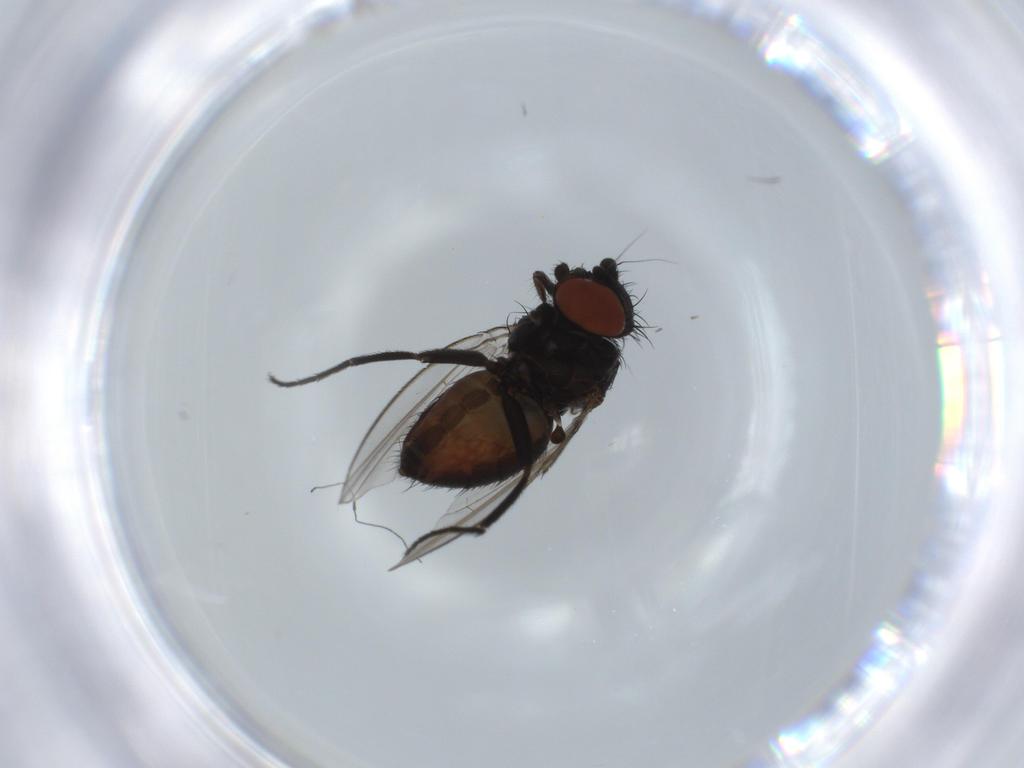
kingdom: Animalia
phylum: Arthropoda
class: Insecta
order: Diptera
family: Milichiidae
